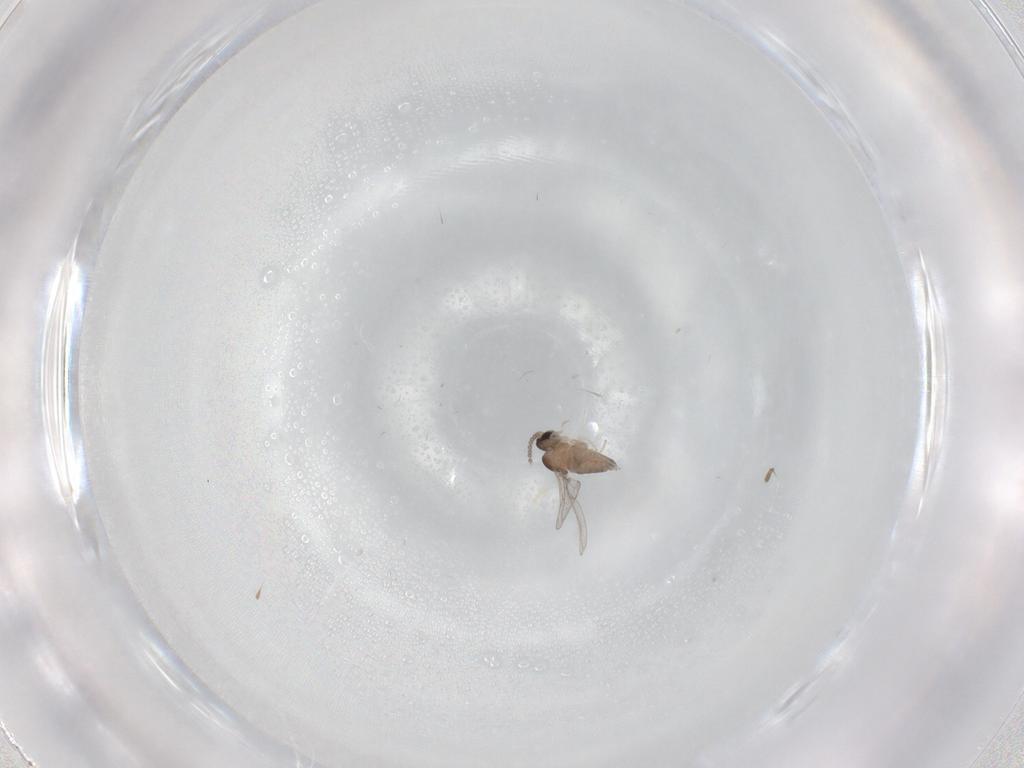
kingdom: Animalia
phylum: Arthropoda
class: Insecta
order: Diptera
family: Cecidomyiidae
